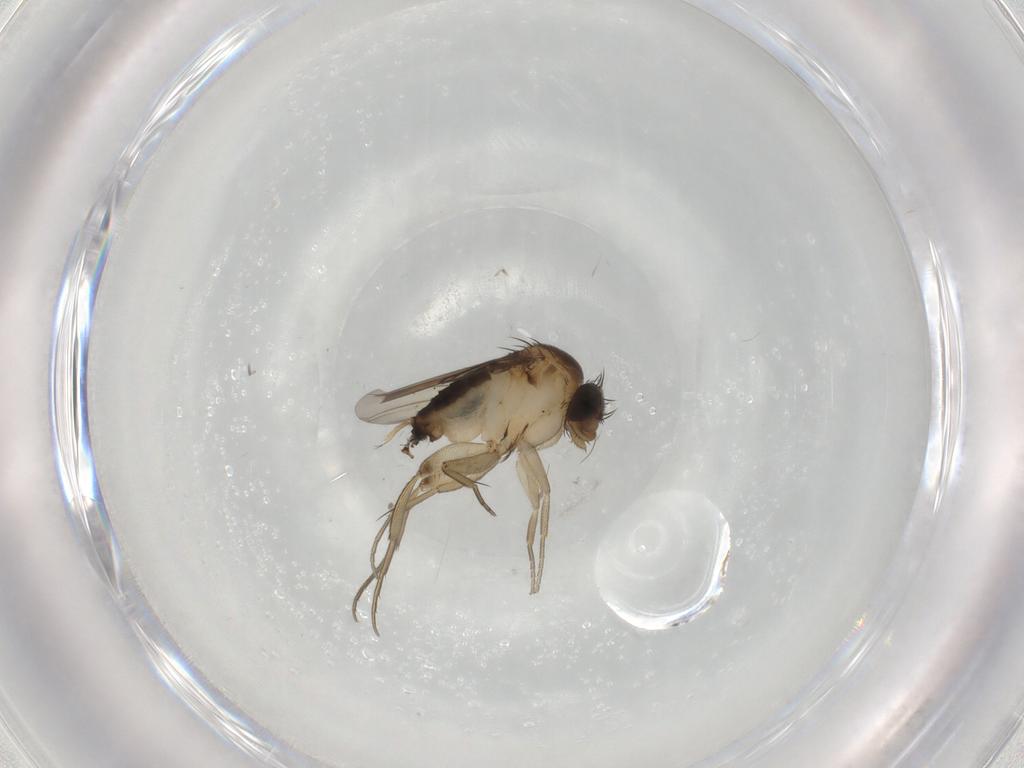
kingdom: Animalia
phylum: Arthropoda
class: Insecta
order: Diptera
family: Phoridae
